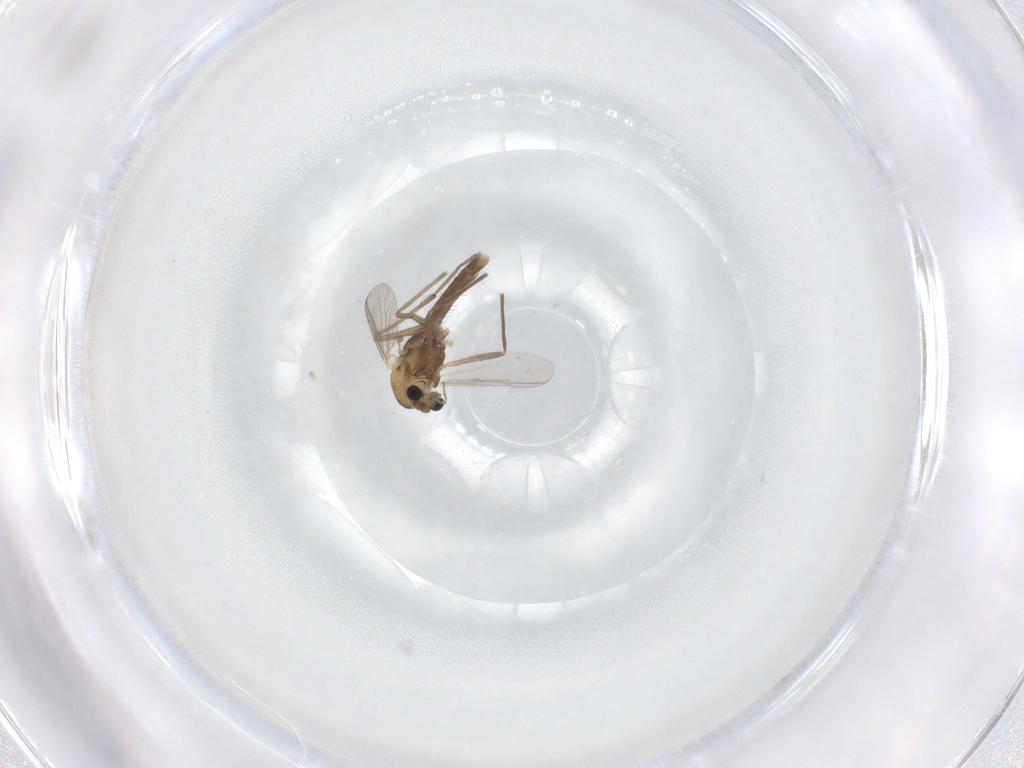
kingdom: Animalia
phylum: Arthropoda
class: Insecta
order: Diptera
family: Chironomidae
